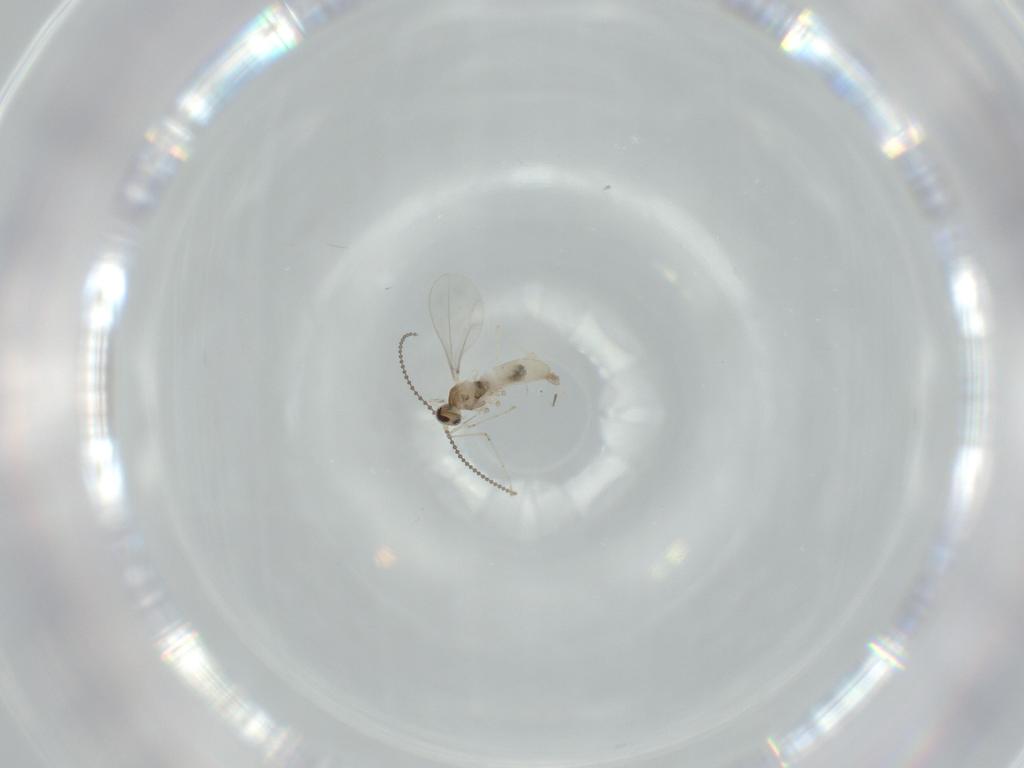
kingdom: Animalia
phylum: Arthropoda
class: Insecta
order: Diptera
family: Cecidomyiidae
